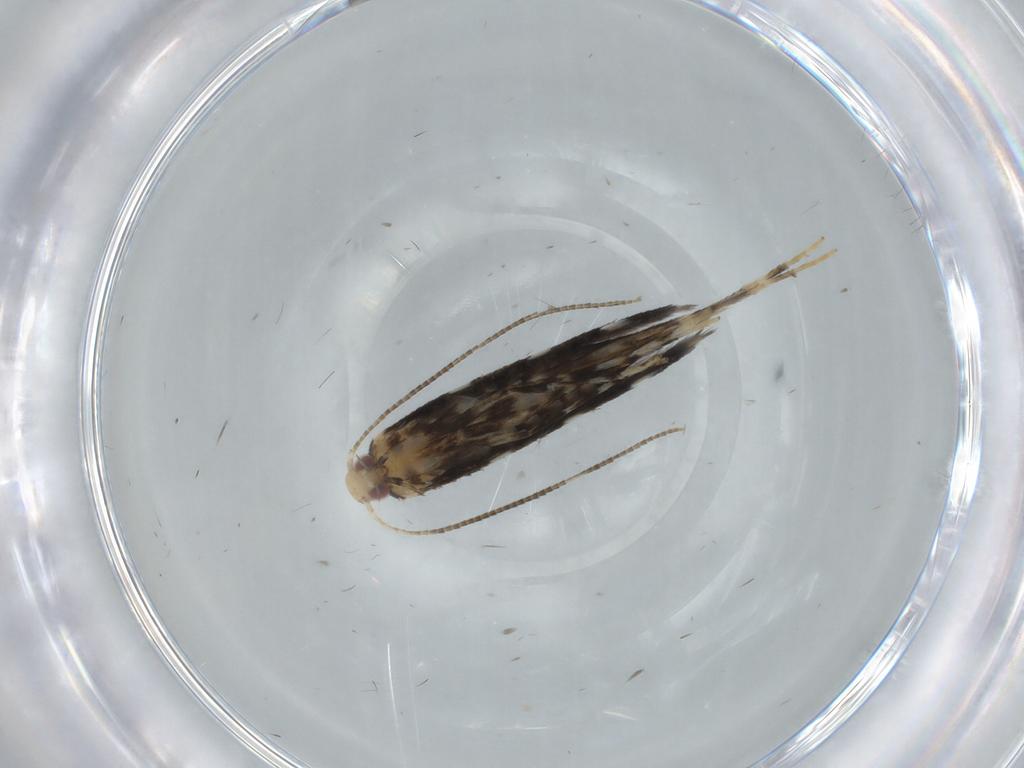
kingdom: Animalia
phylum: Arthropoda
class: Insecta
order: Lepidoptera
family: Gracillariidae
